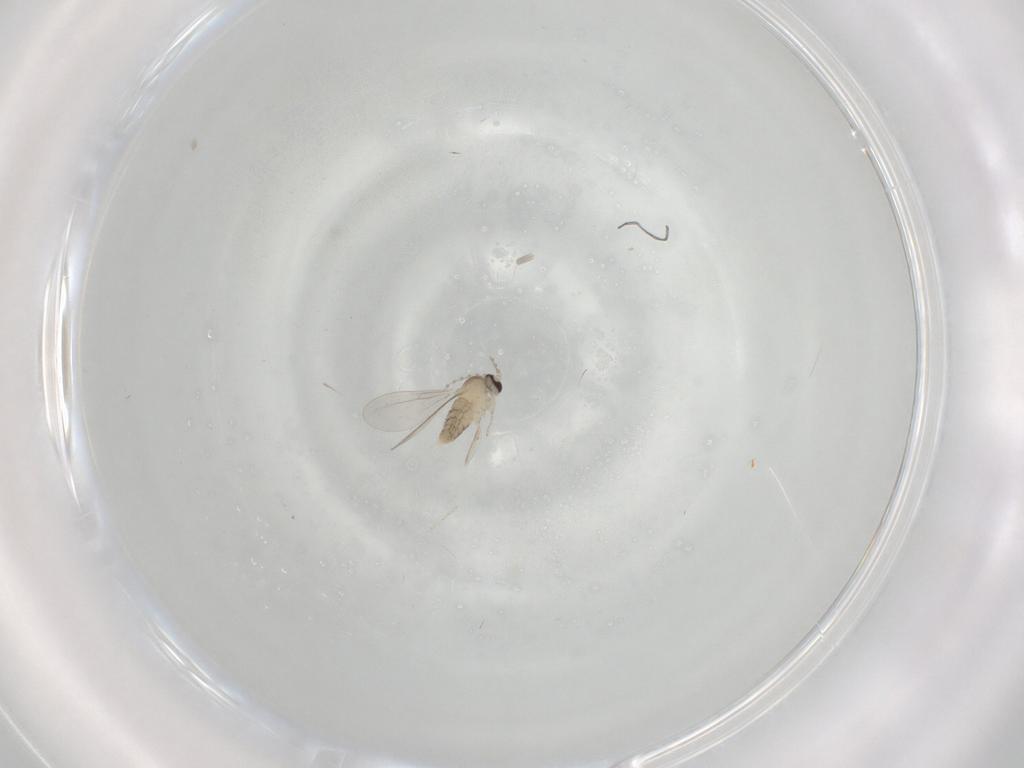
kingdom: Animalia
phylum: Arthropoda
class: Insecta
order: Diptera
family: Cecidomyiidae
